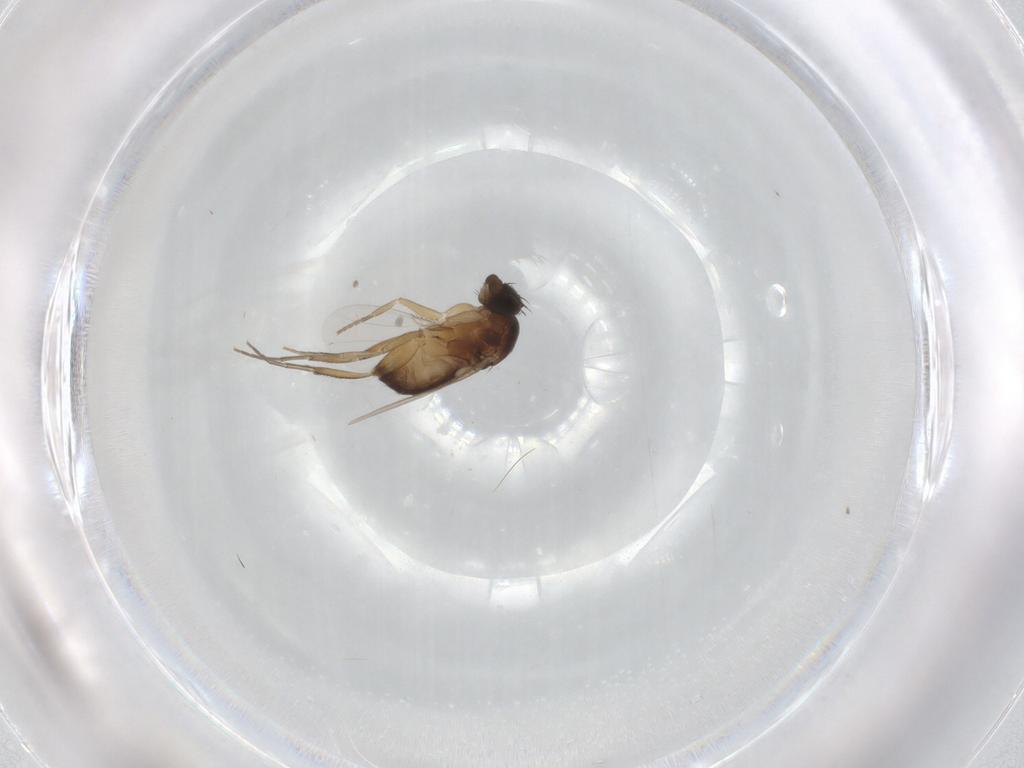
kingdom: Animalia
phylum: Arthropoda
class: Insecta
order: Diptera
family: Phoridae
